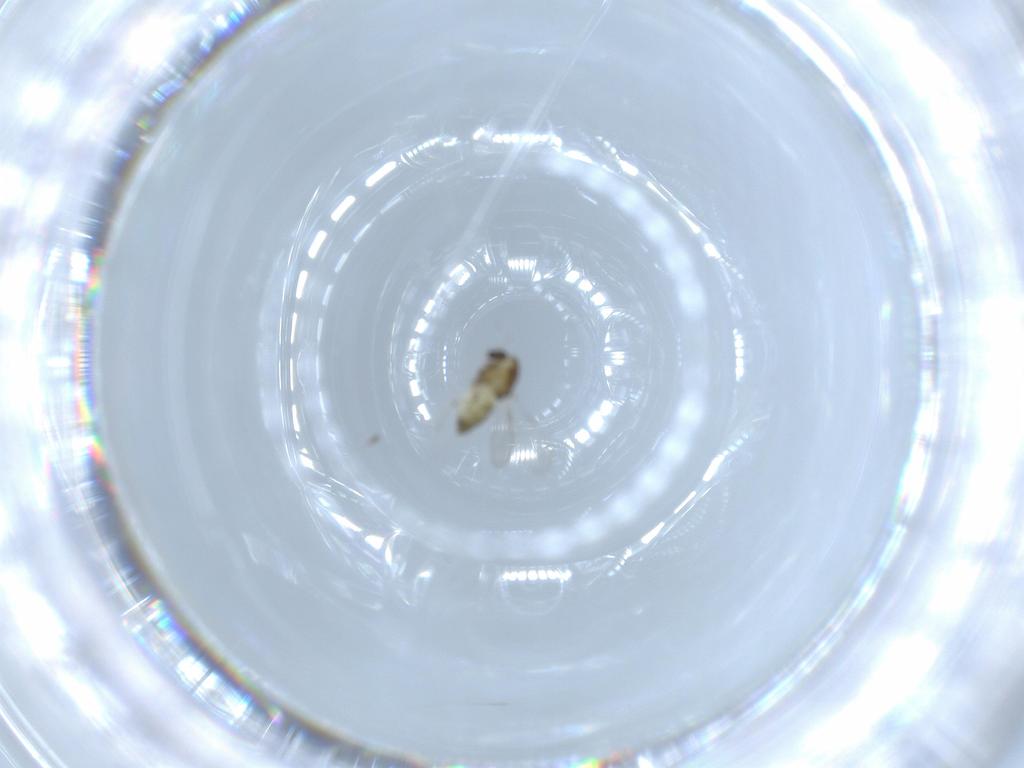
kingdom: Animalia
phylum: Arthropoda
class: Insecta
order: Diptera
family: Chironomidae
